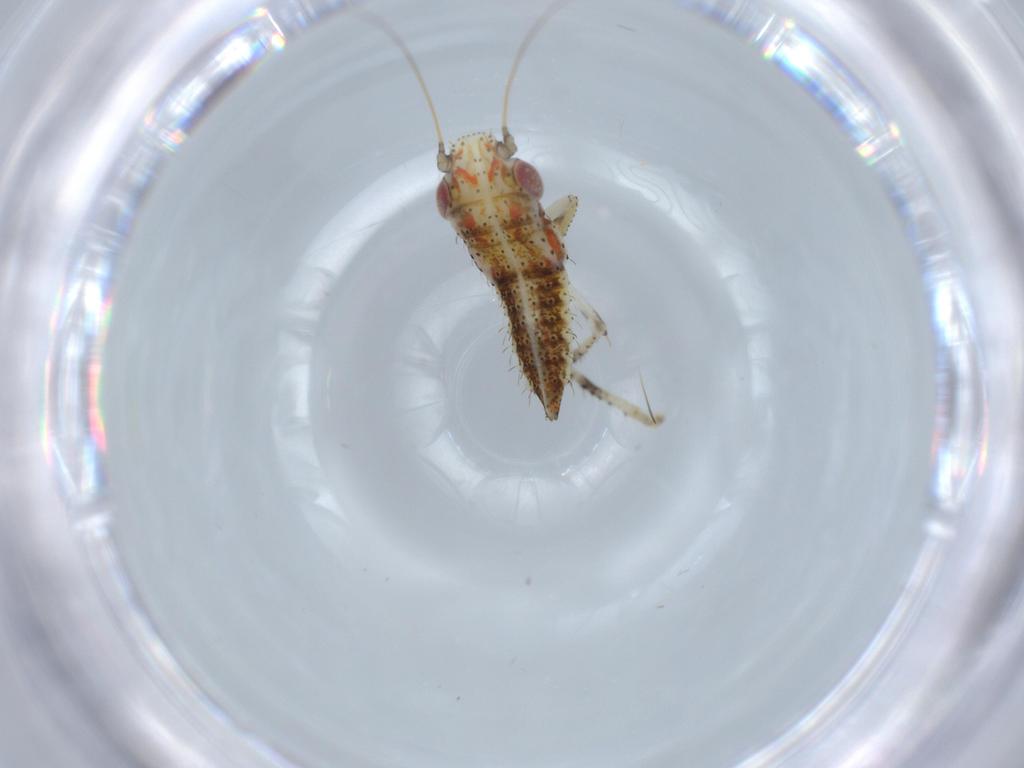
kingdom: Animalia
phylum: Arthropoda
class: Insecta
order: Hemiptera
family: Cicadellidae
